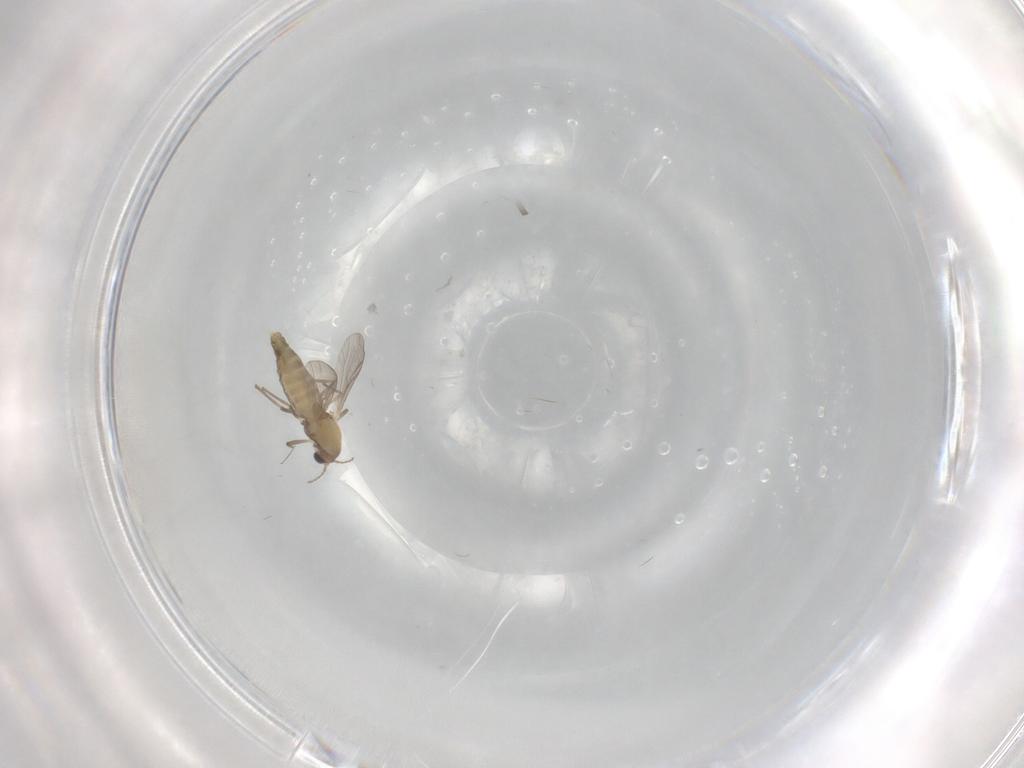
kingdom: Animalia
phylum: Arthropoda
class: Insecta
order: Diptera
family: Chironomidae
